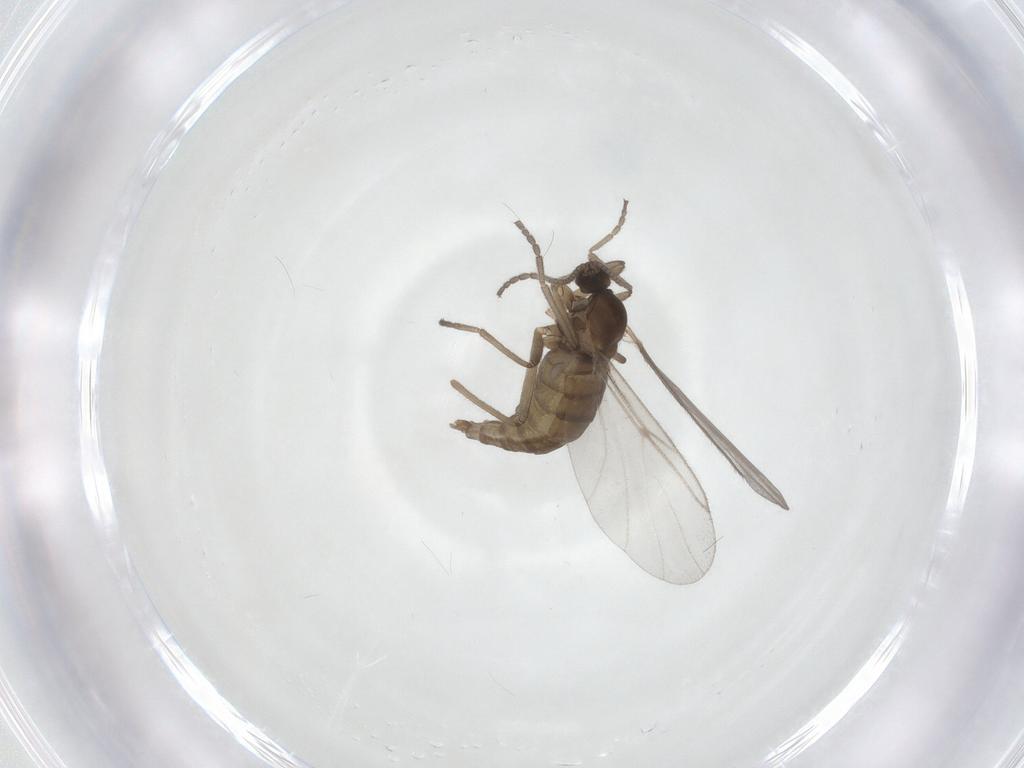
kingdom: Animalia
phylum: Arthropoda
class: Insecta
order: Diptera
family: Cecidomyiidae
